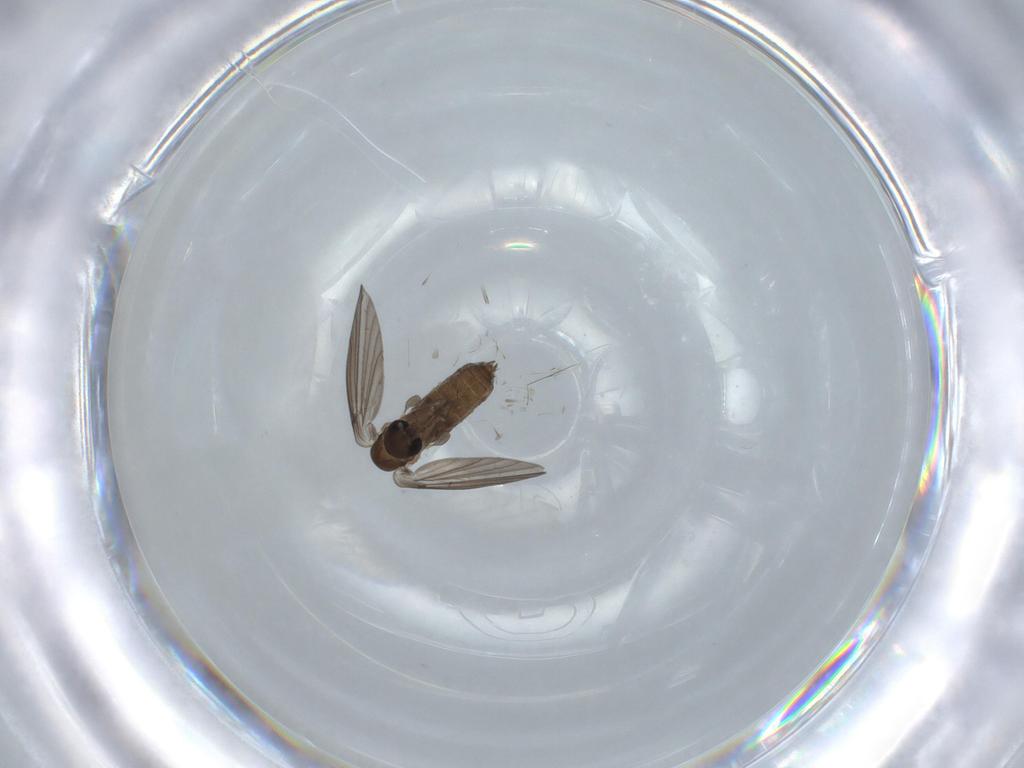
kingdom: Animalia
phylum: Arthropoda
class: Insecta
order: Diptera
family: Psychodidae
